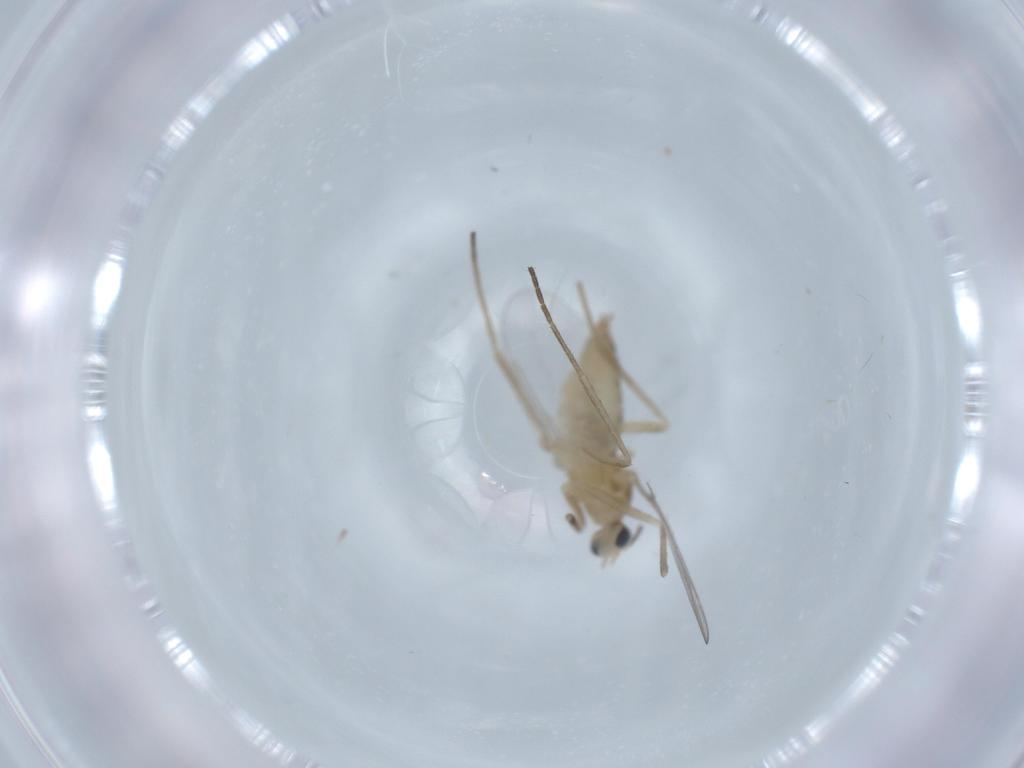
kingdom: Animalia
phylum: Arthropoda
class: Insecta
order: Diptera
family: Cecidomyiidae
